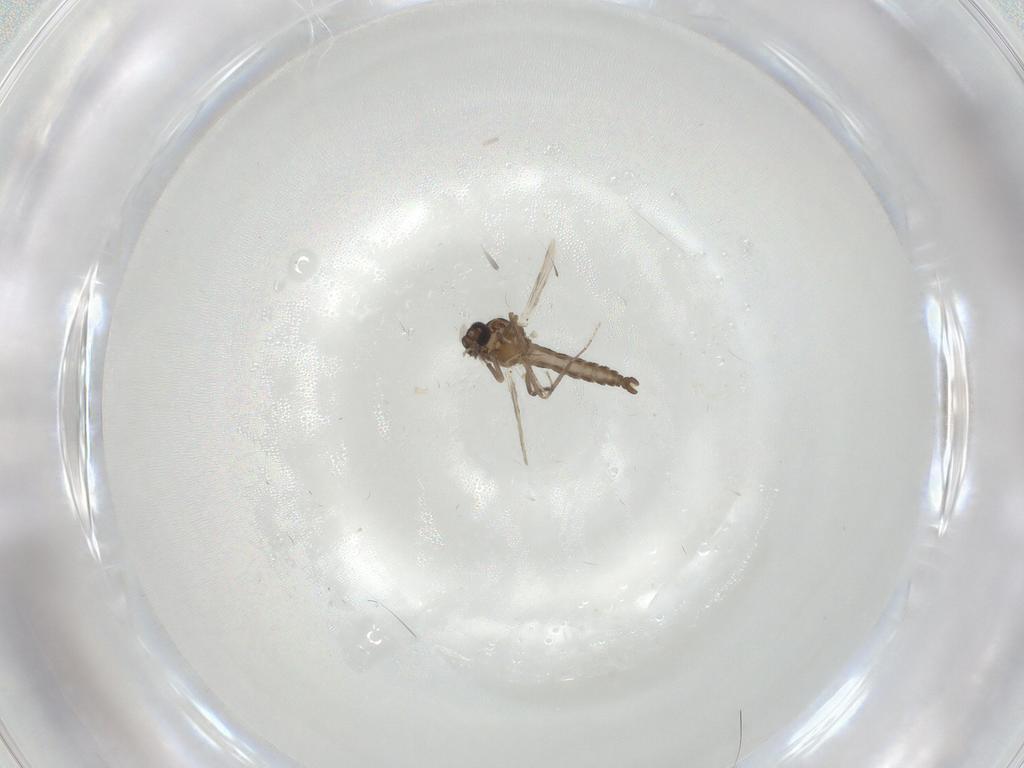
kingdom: Animalia
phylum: Arthropoda
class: Insecta
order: Diptera
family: Ceratopogonidae
